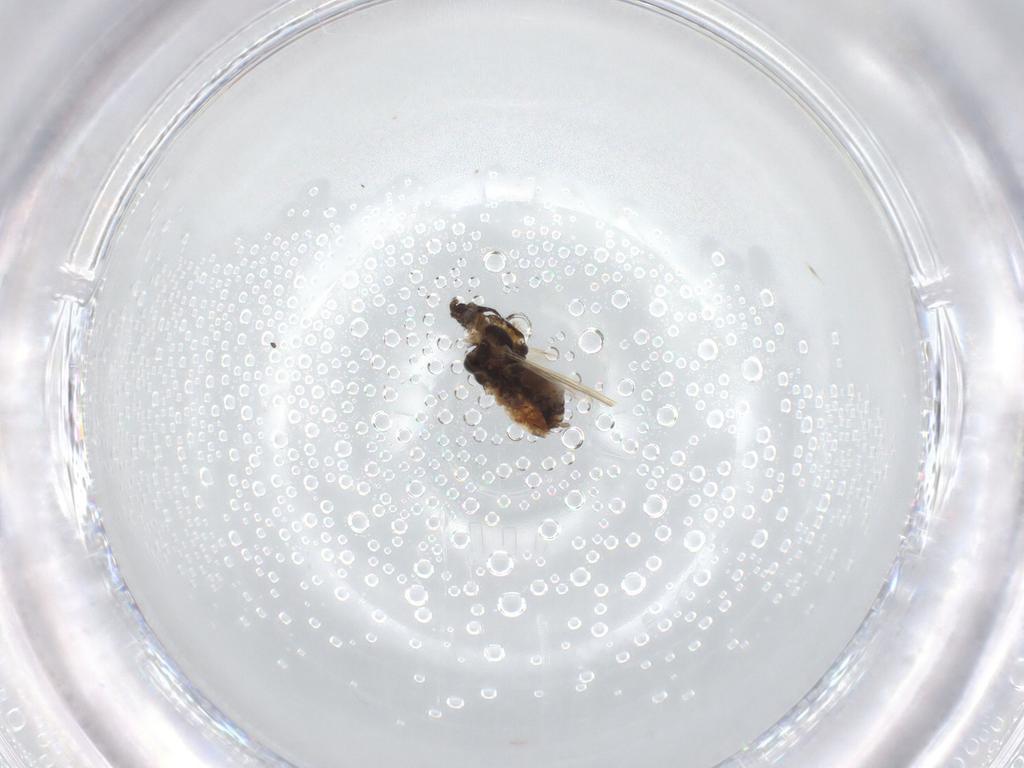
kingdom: Animalia
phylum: Arthropoda
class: Insecta
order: Hemiptera
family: Aphididae
